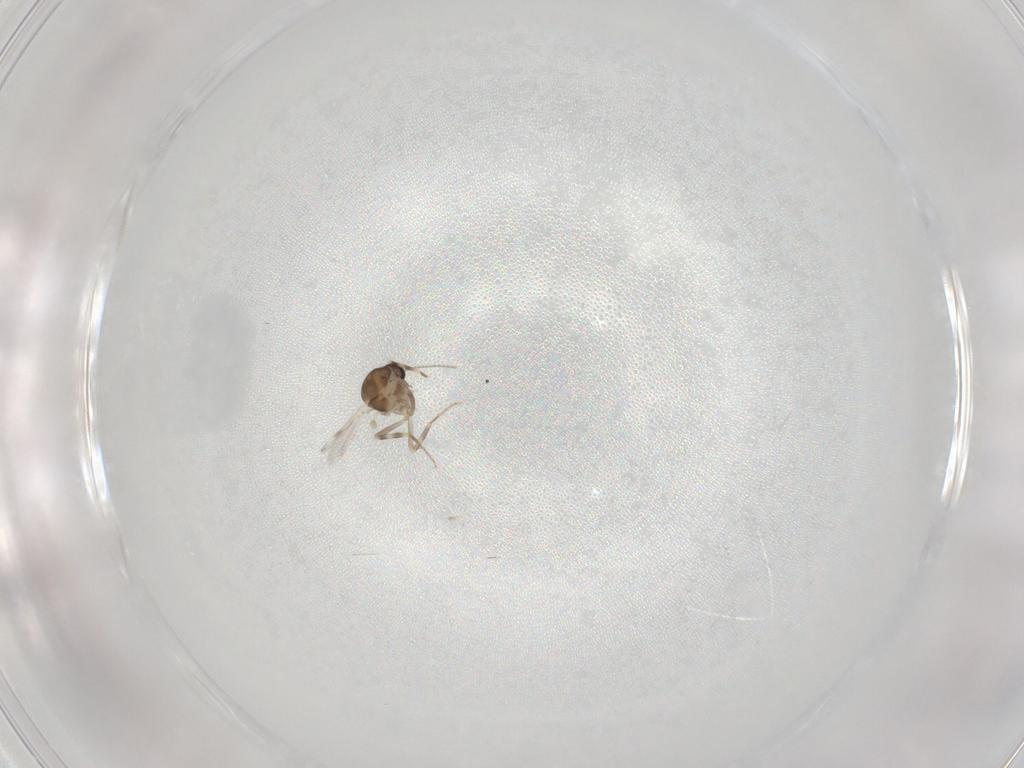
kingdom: Animalia
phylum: Arthropoda
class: Insecta
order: Diptera
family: Ceratopogonidae
